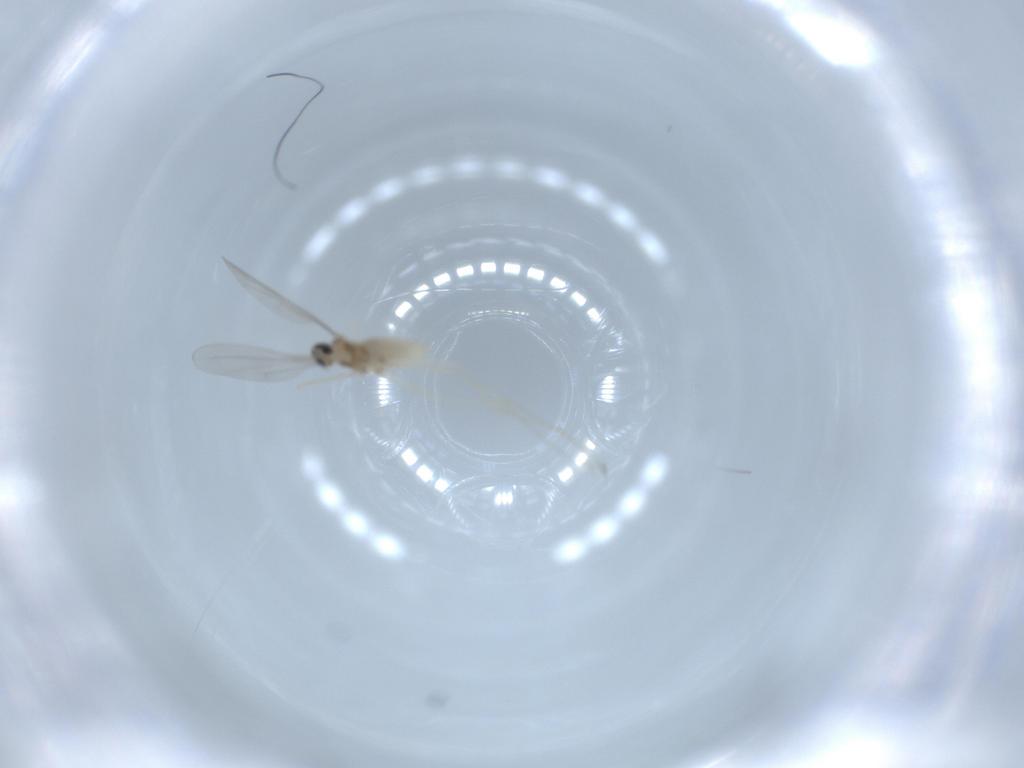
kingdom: Animalia
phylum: Arthropoda
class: Insecta
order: Diptera
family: Cecidomyiidae
